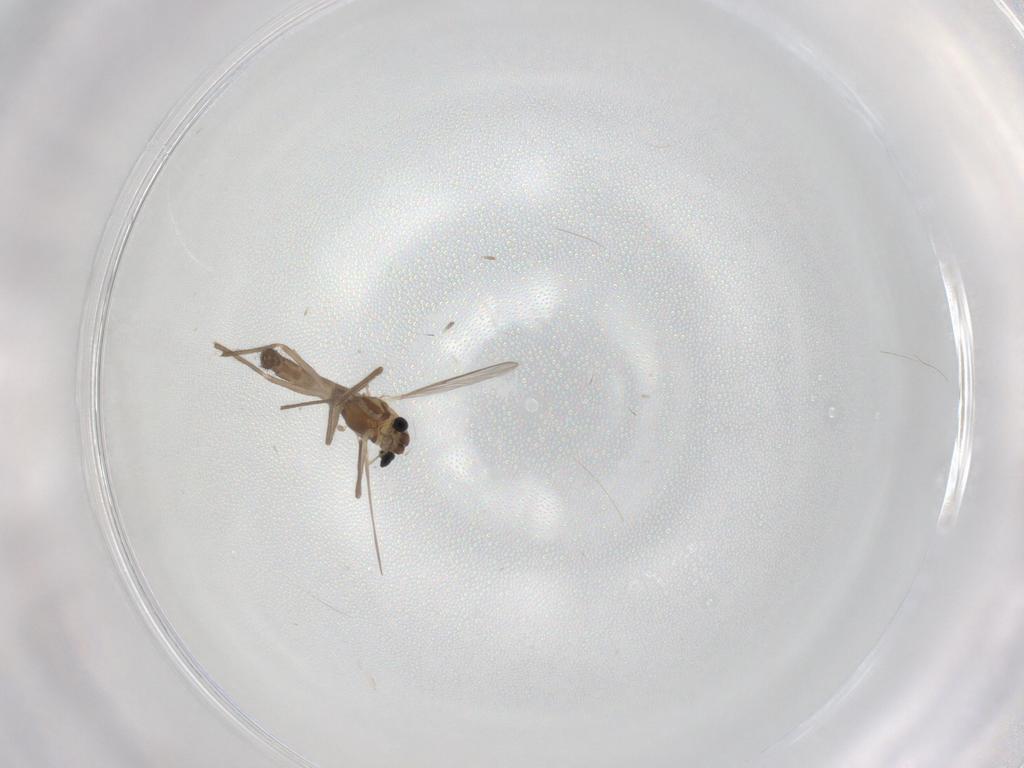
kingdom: Animalia
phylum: Arthropoda
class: Insecta
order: Diptera
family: Chironomidae
